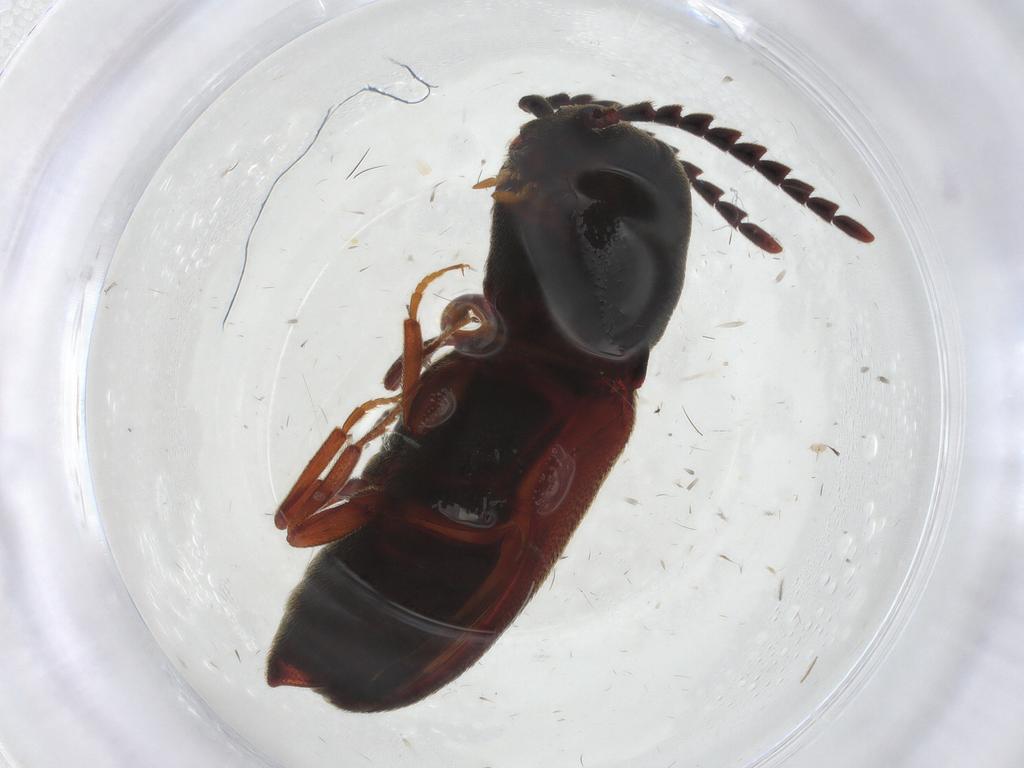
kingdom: Animalia
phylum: Arthropoda
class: Insecta
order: Coleoptera
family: Eucnemidae
